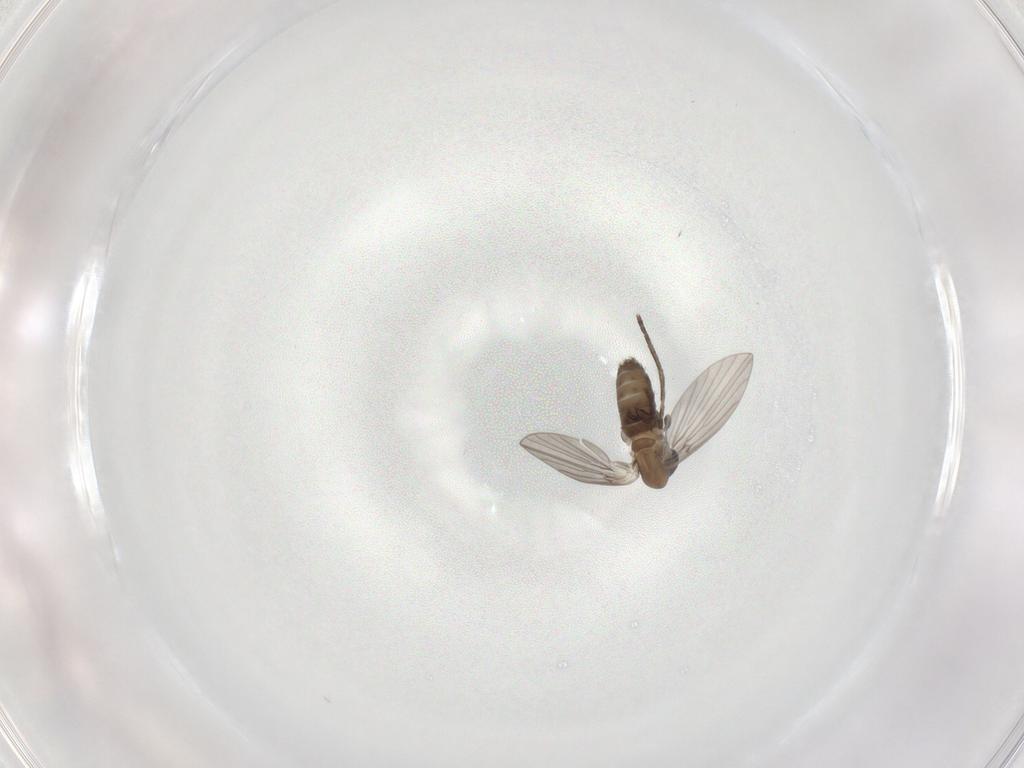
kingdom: Animalia
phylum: Arthropoda
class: Insecta
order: Diptera
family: Psychodidae
